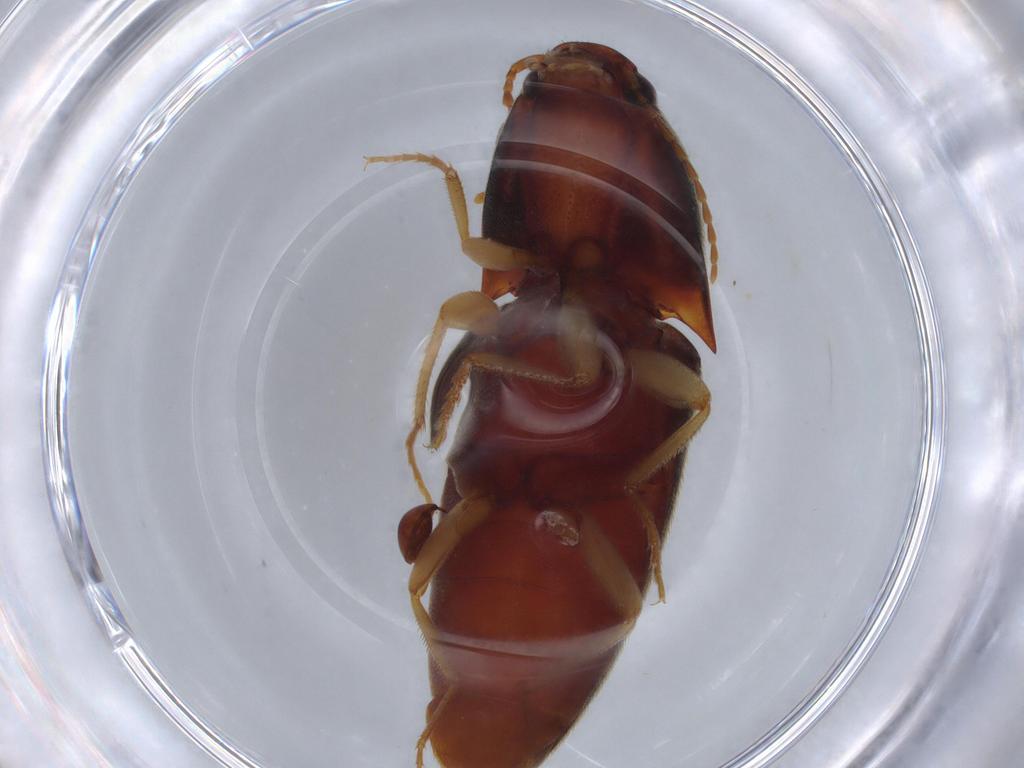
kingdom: Animalia
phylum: Arthropoda
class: Insecta
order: Coleoptera
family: Elateridae
